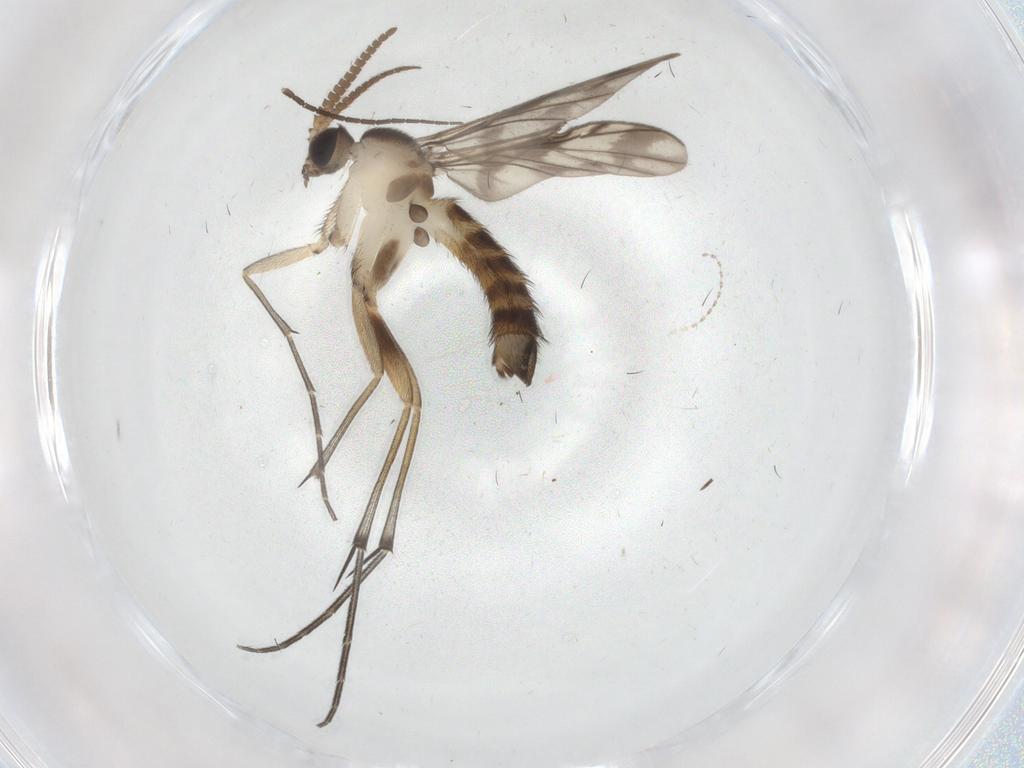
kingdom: Animalia
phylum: Arthropoda
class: Insecta
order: Diptera
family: Sciaridae
